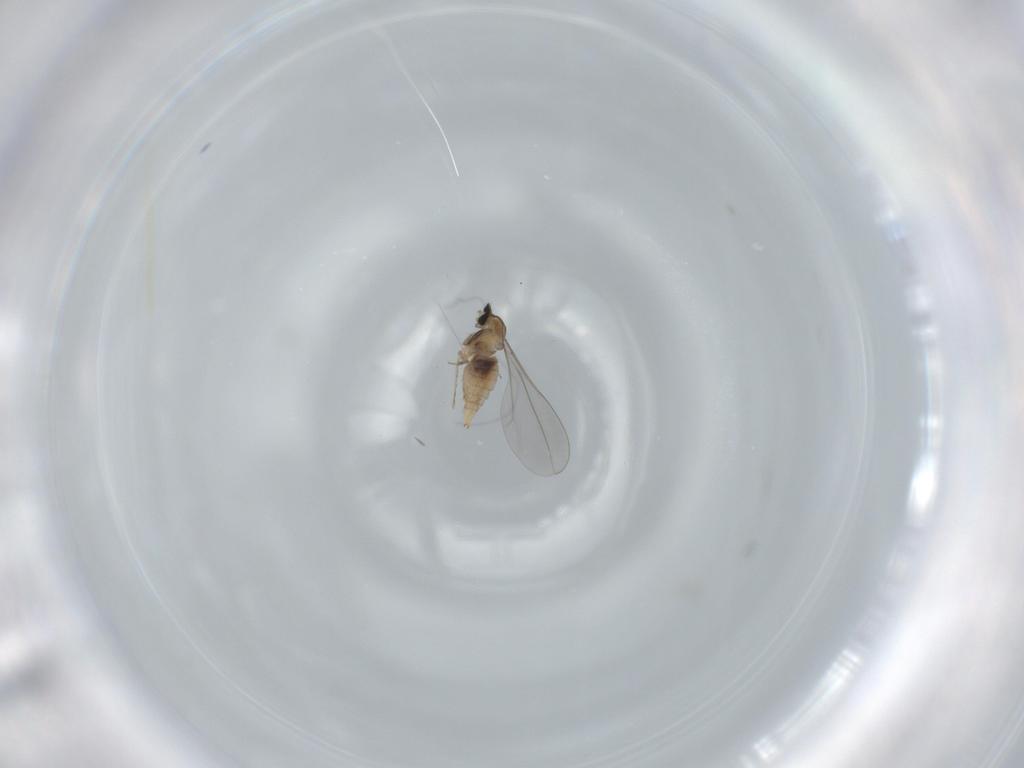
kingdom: Animalia
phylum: Arthropoda
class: Insecta
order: Diptera
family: Cecidomyiidae
